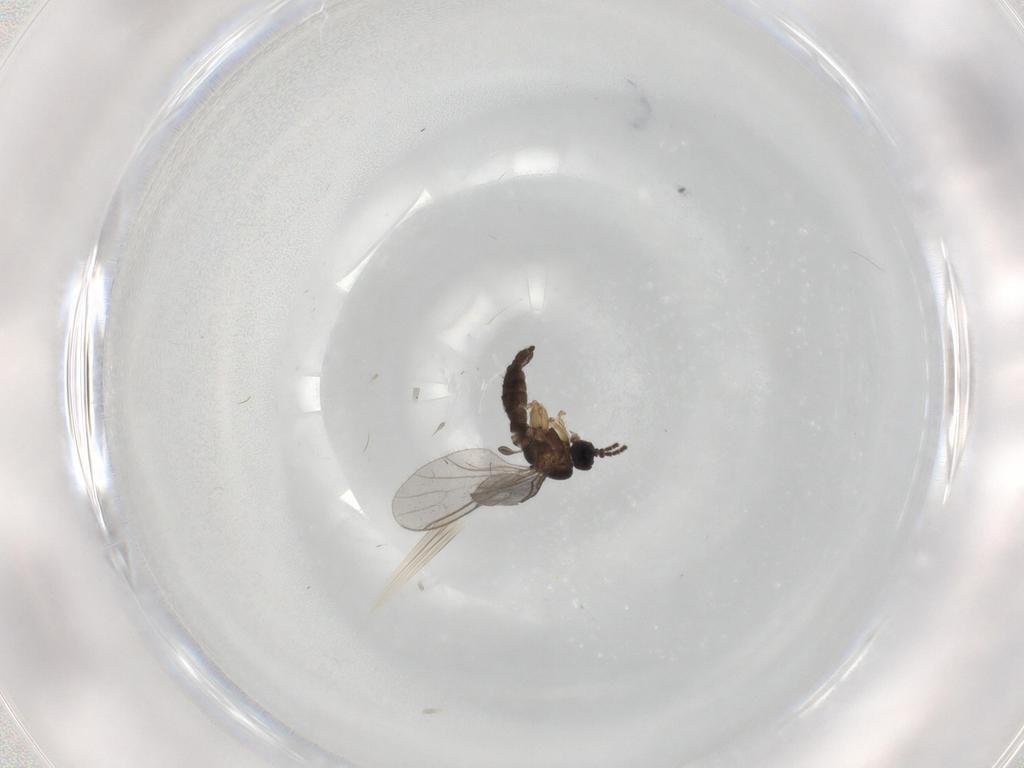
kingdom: Animalia
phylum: Arthropoda
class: Insecta
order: Diptera
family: Sciaridae
